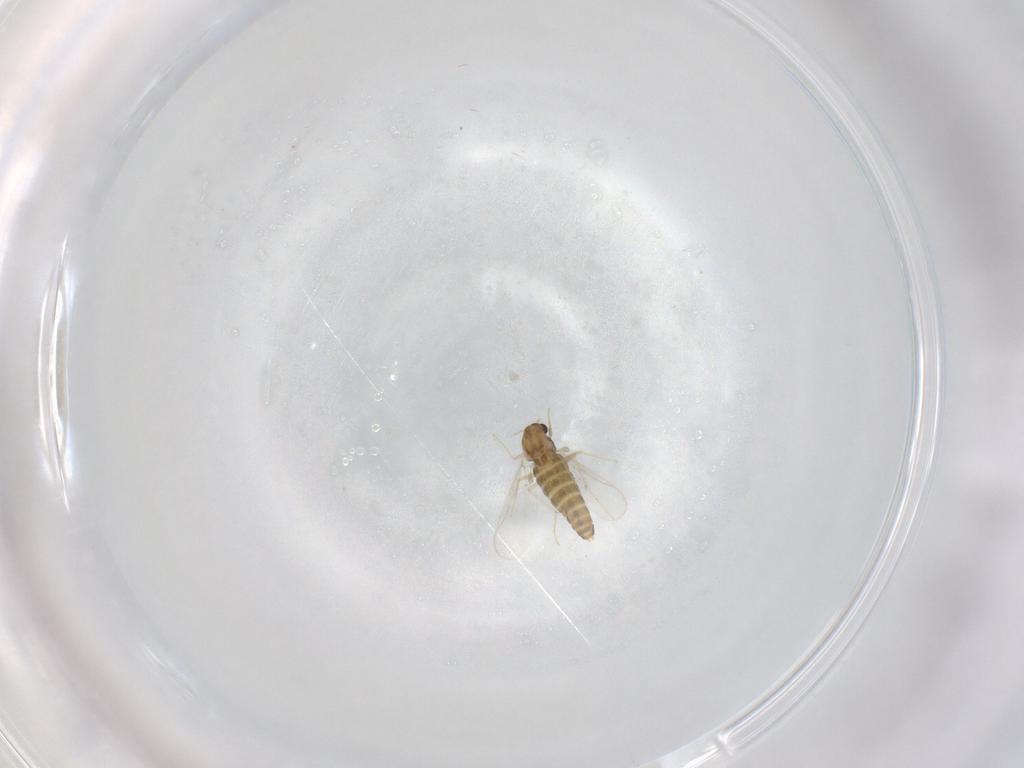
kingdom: Animalia
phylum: Arthropoda
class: Insecta
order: Diptera
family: Chironomidae
